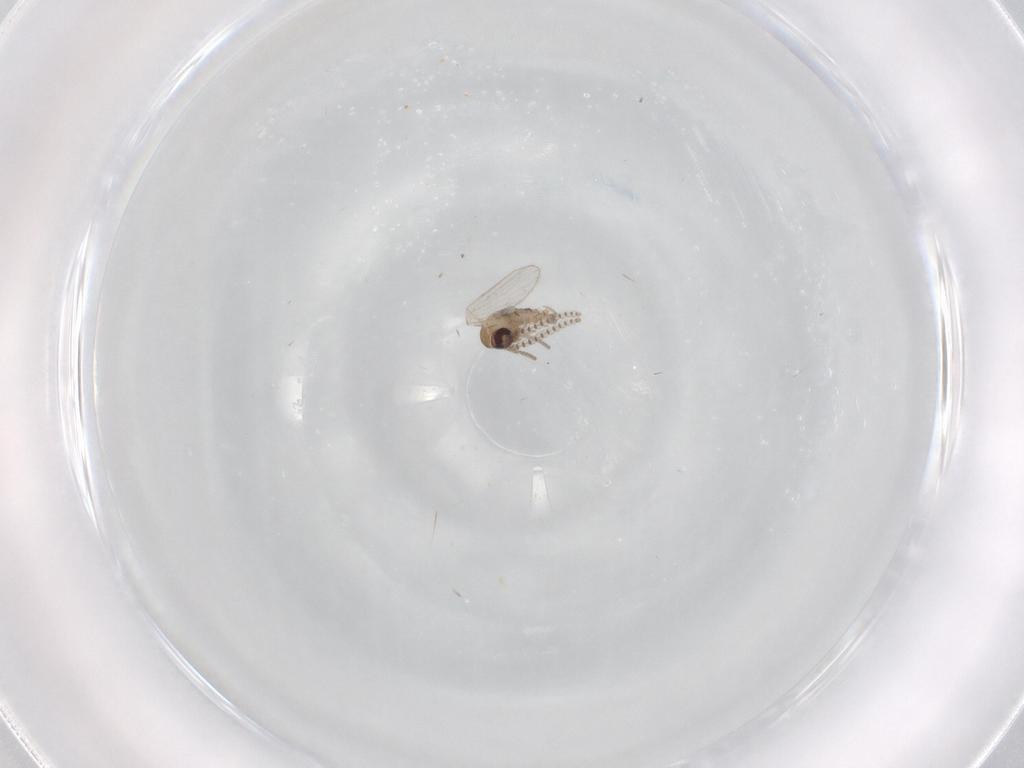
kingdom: Animalia
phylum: Arthropoda
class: Insecta
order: Diptera
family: Psychodidae
